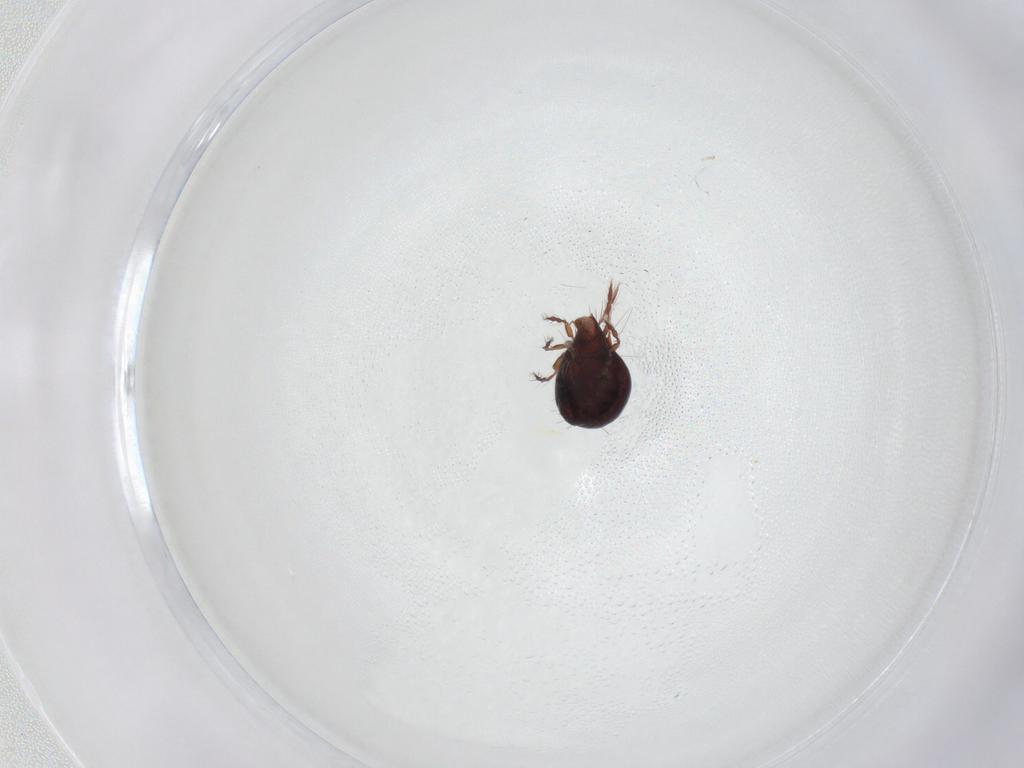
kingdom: Animalia
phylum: Arthropoda
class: Arachnida
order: Sarcoptiformes
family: Ceratoppiidae
